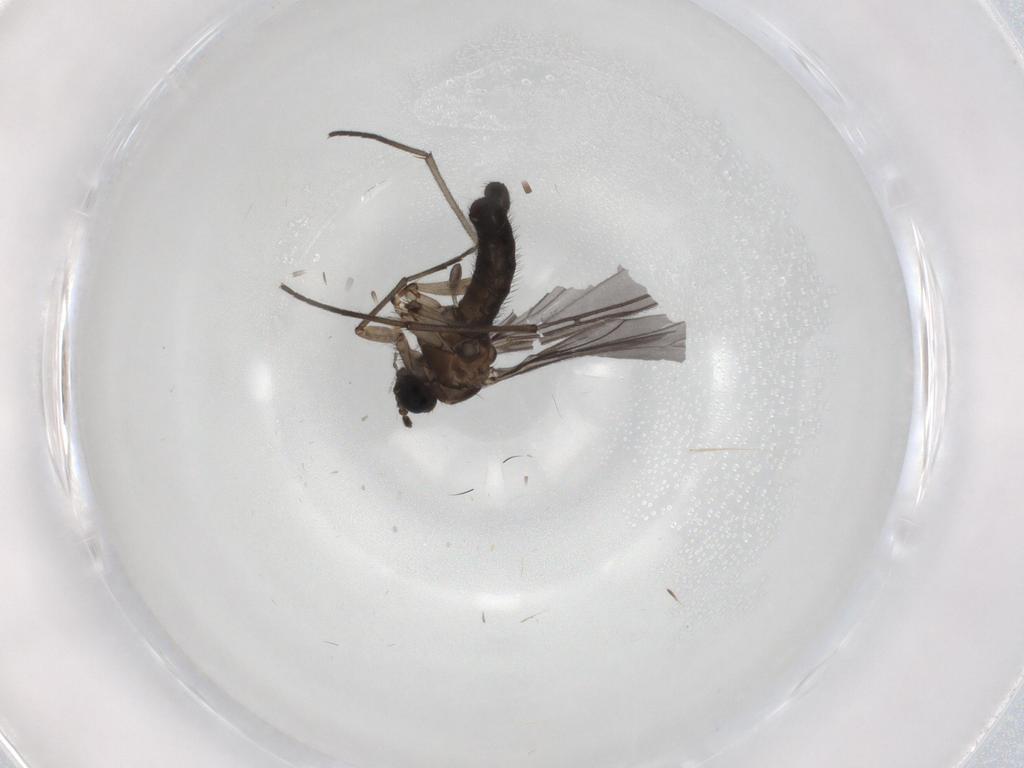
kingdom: Animalia
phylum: Arthropoda
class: Insecta
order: Diptera
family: Sciaridae
